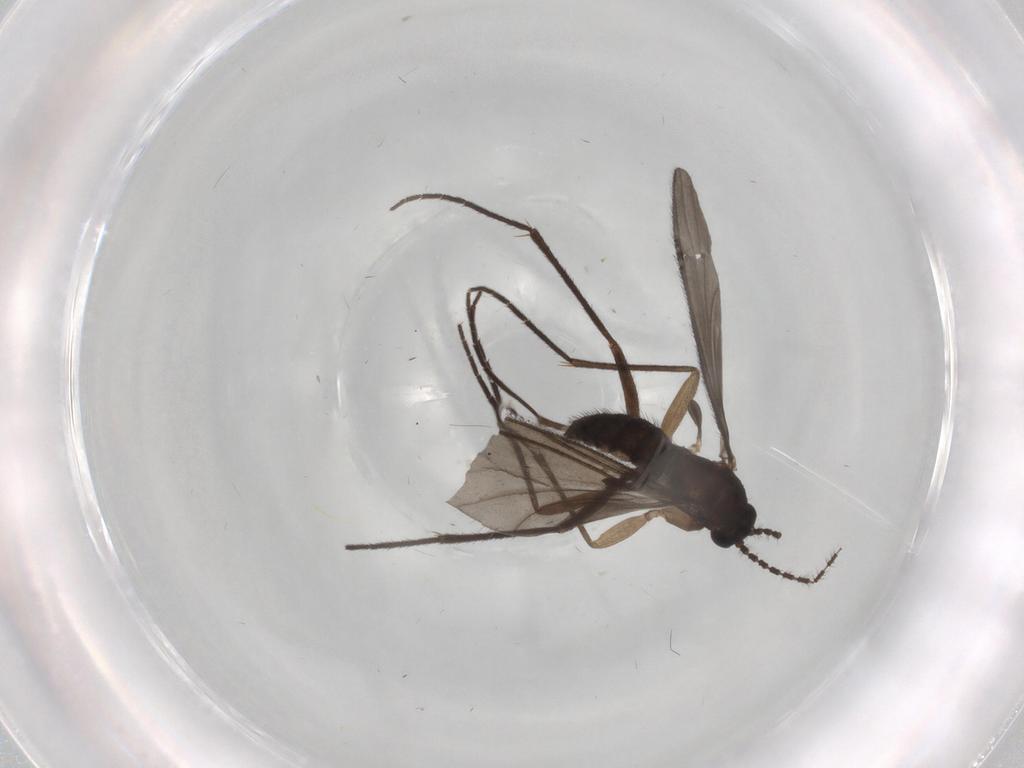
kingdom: Animalia
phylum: Arthropoda
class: Insecta
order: Diptera
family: Sciaridae
